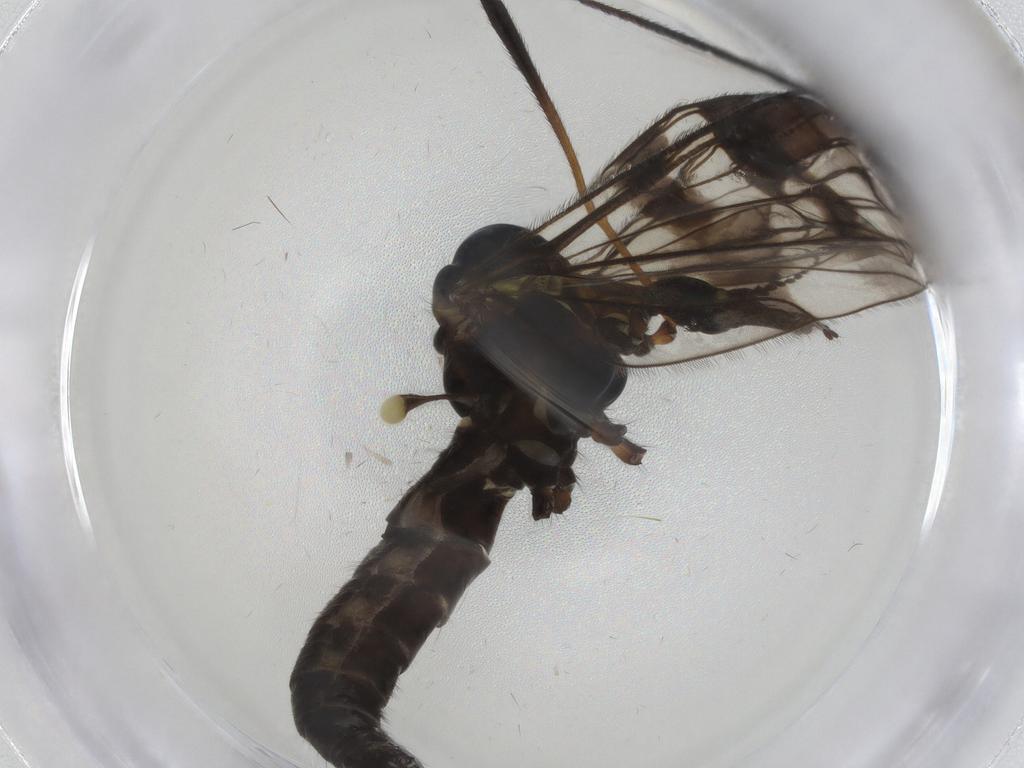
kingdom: Animalia
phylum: Arthropoda
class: Insecta
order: Diptera
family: Limoniidae
